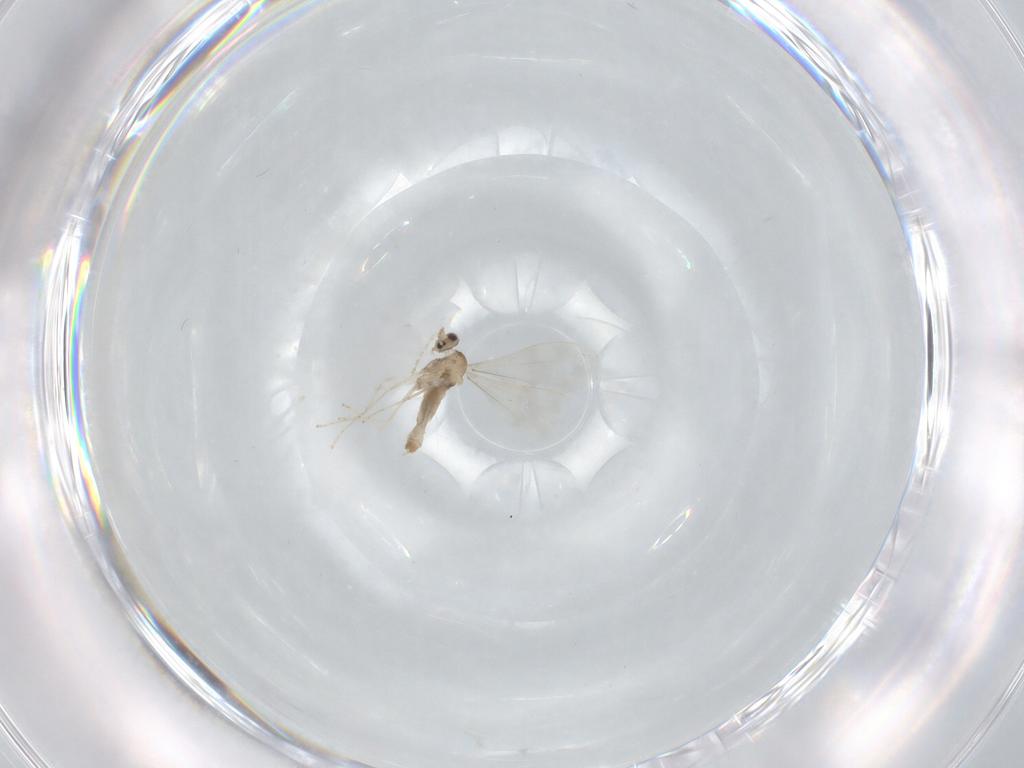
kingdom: Animalia
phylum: Arthropoda
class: Insecta
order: Diptera
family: Cecidomyiidae
